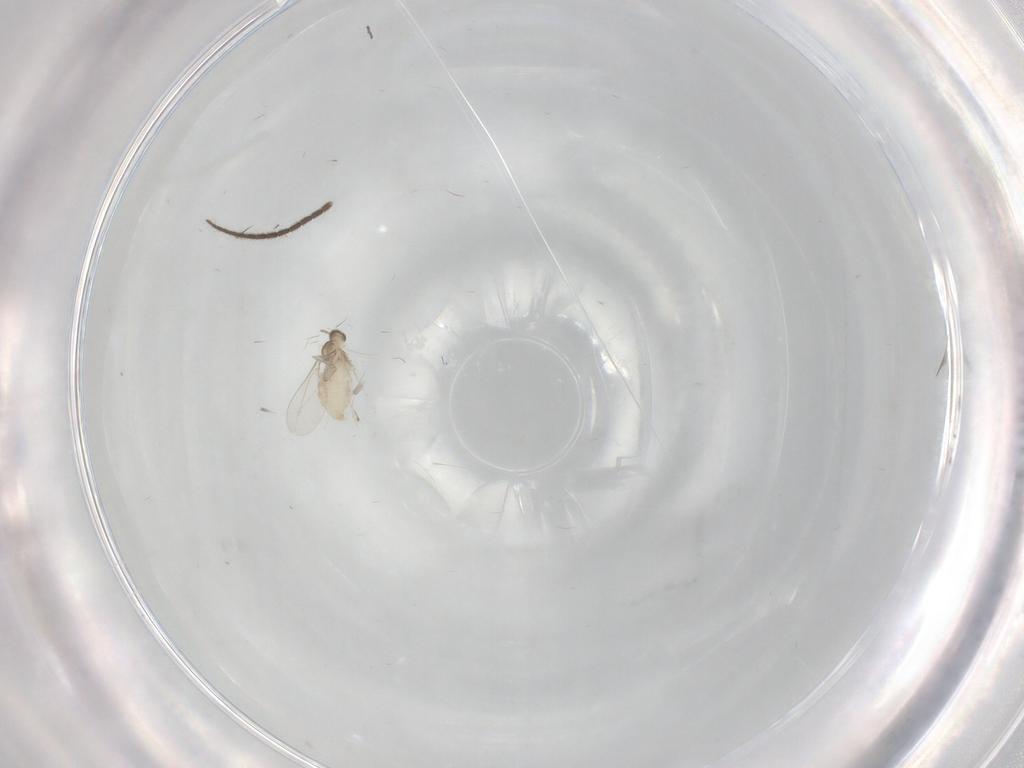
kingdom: Animalia
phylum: Arthropoda
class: Insecta
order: Diptera
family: Cecidomyiidae
